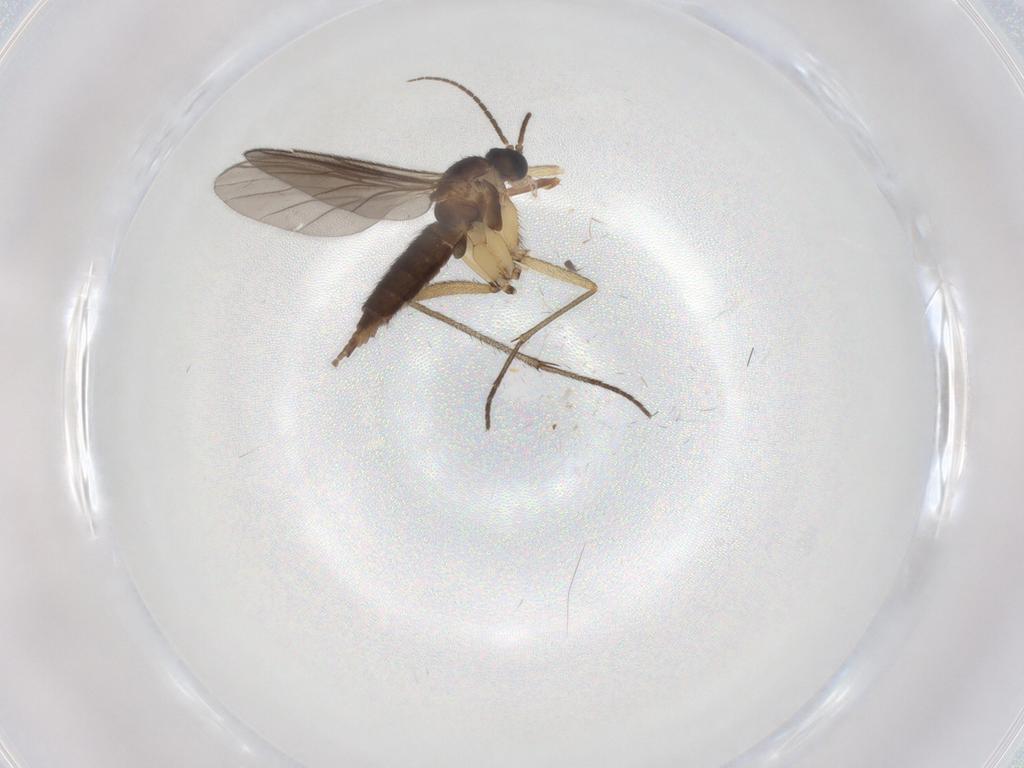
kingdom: Animalia
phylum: Arthropoda
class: Insecta
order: Diptera
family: Sciaridae
